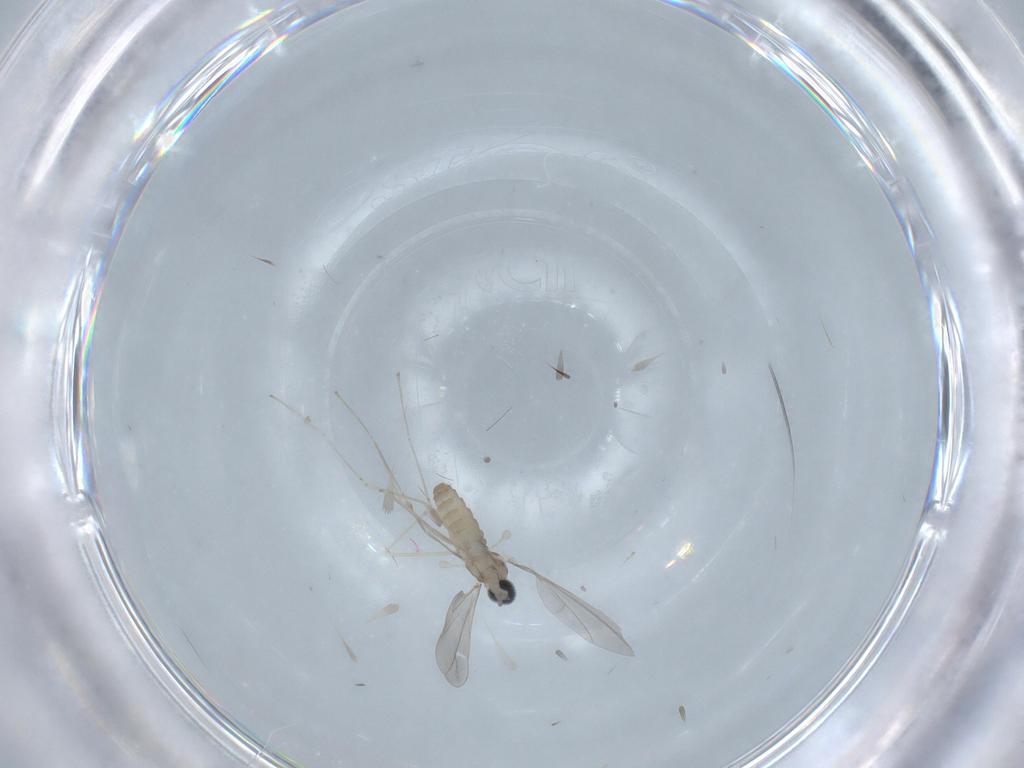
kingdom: Animalia
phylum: Arthropoda
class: Insecta
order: Diptera
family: Cecidomyiidae
